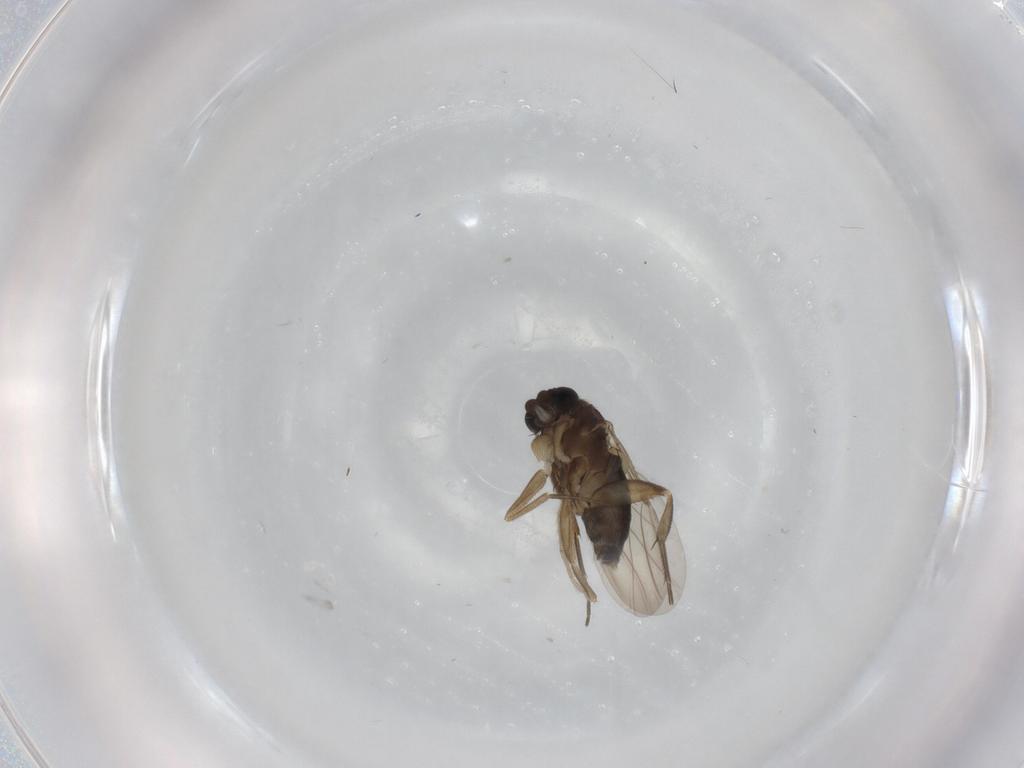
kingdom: Animalia
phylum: Arthropoda
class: Insecta
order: Diptera
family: Phoridae
